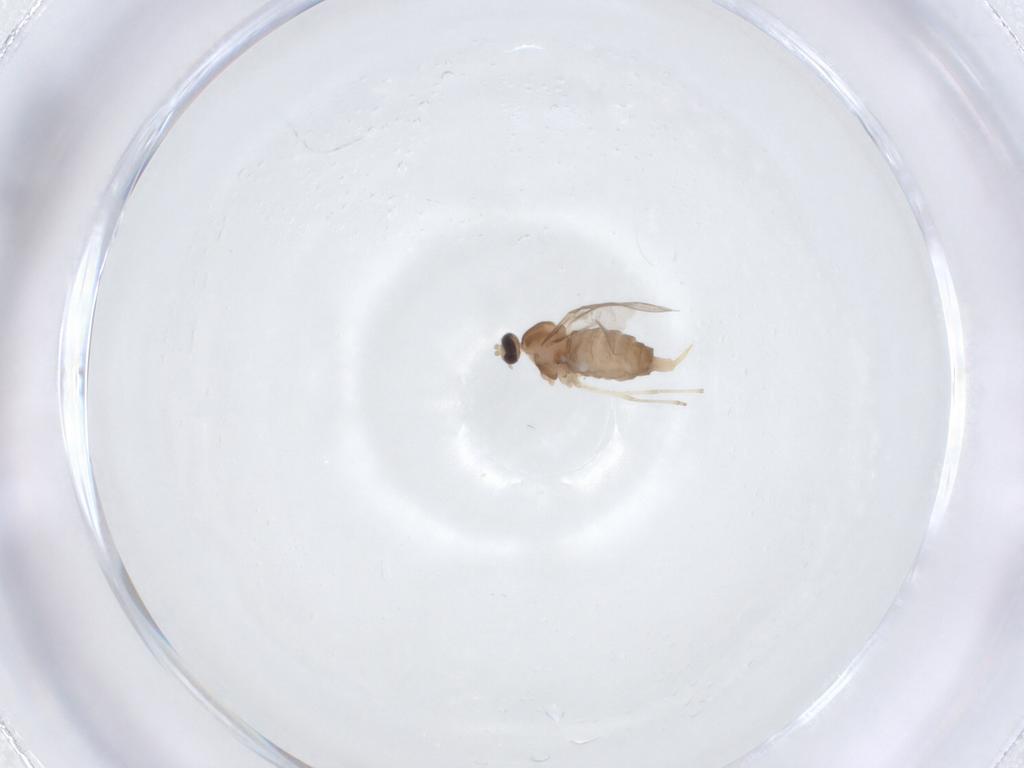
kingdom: Animalia
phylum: Arthropoda
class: Insecta
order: Diptera
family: Cecidomyiidae
